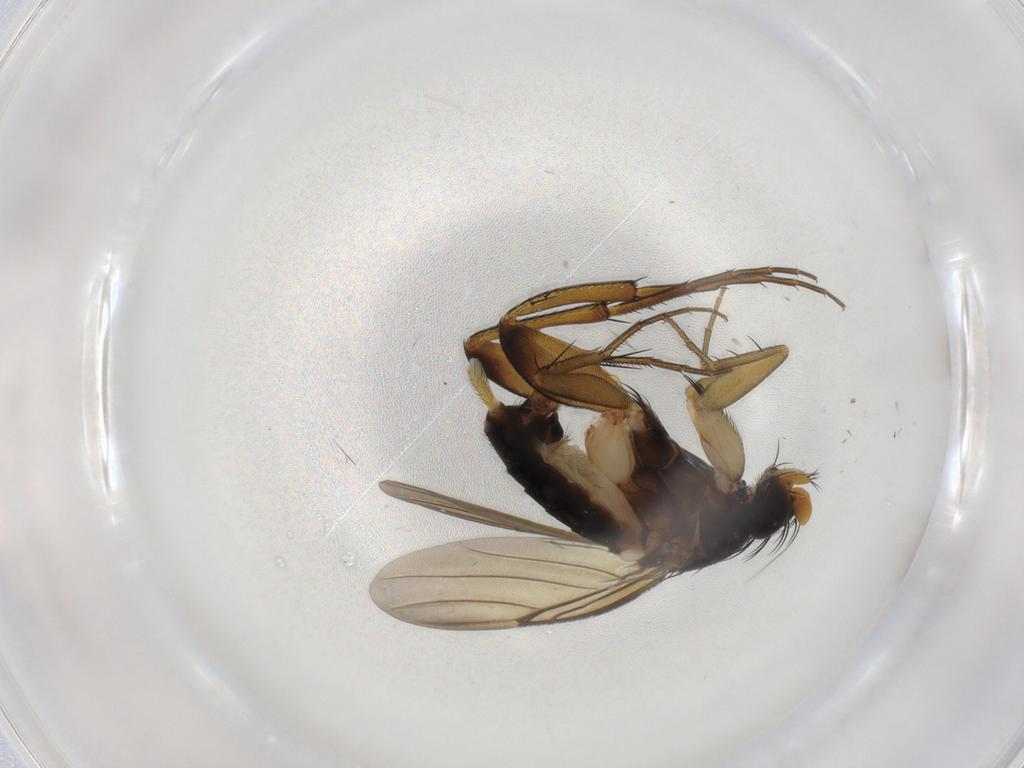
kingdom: Animalia
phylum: Arthropoda
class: Insecta
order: Diptera
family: Phoridae
